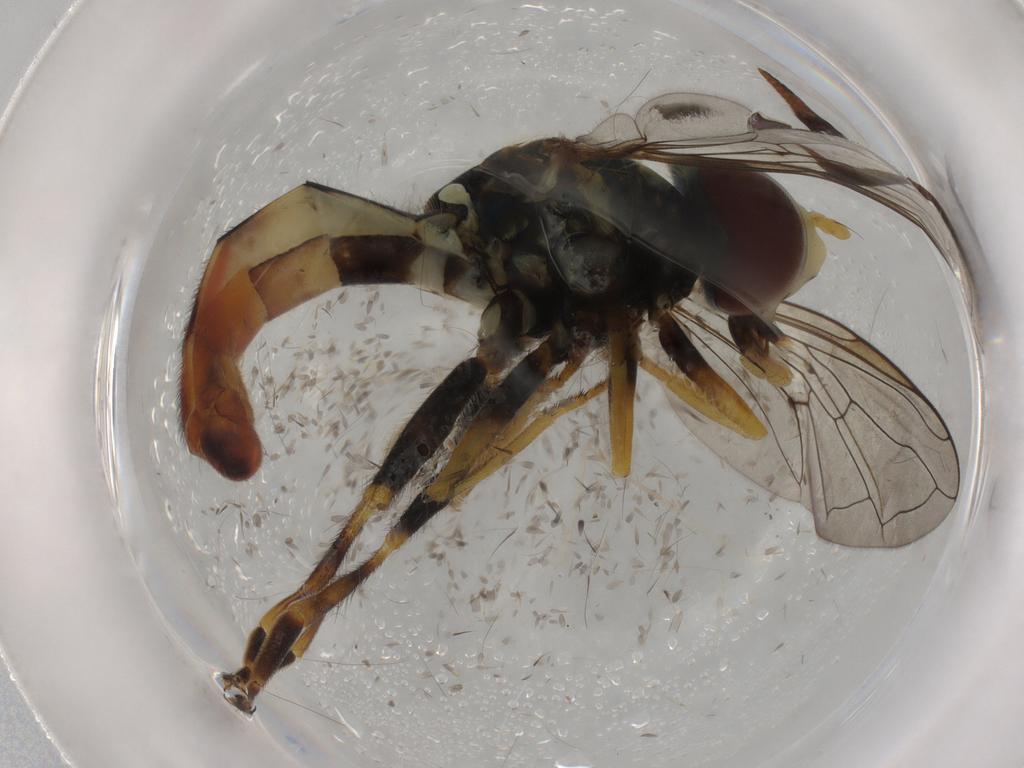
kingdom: Animalia
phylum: Arthropoda
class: Insecta
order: Diptera
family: Syrphidae
